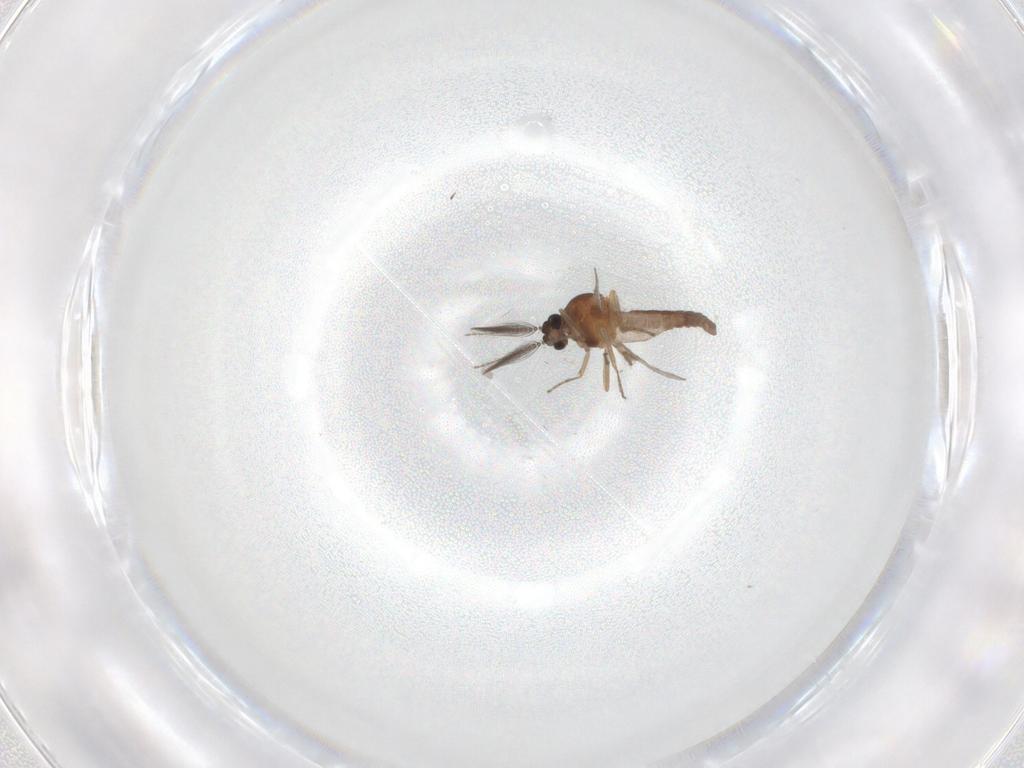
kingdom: Animalia
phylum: Arthropoda
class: Insecta
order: Diptera
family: Ceratopogonidae
